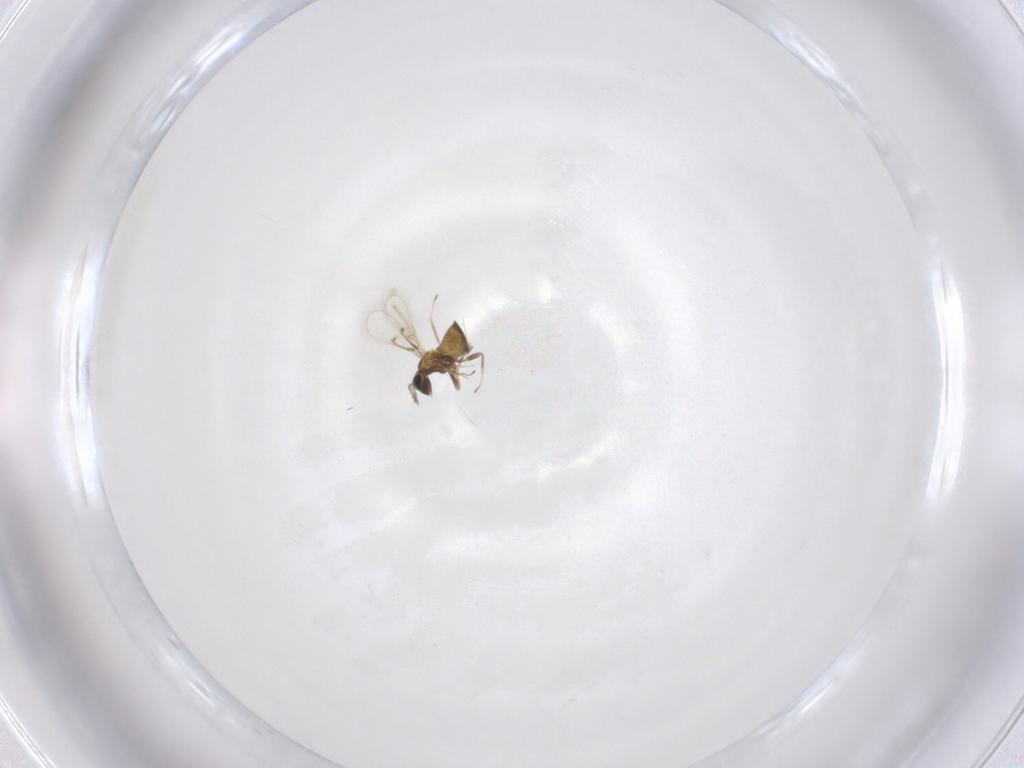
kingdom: Animalia
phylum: Arthropoda
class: Insecta
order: Hymenoptera
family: Trichogrammatidae
